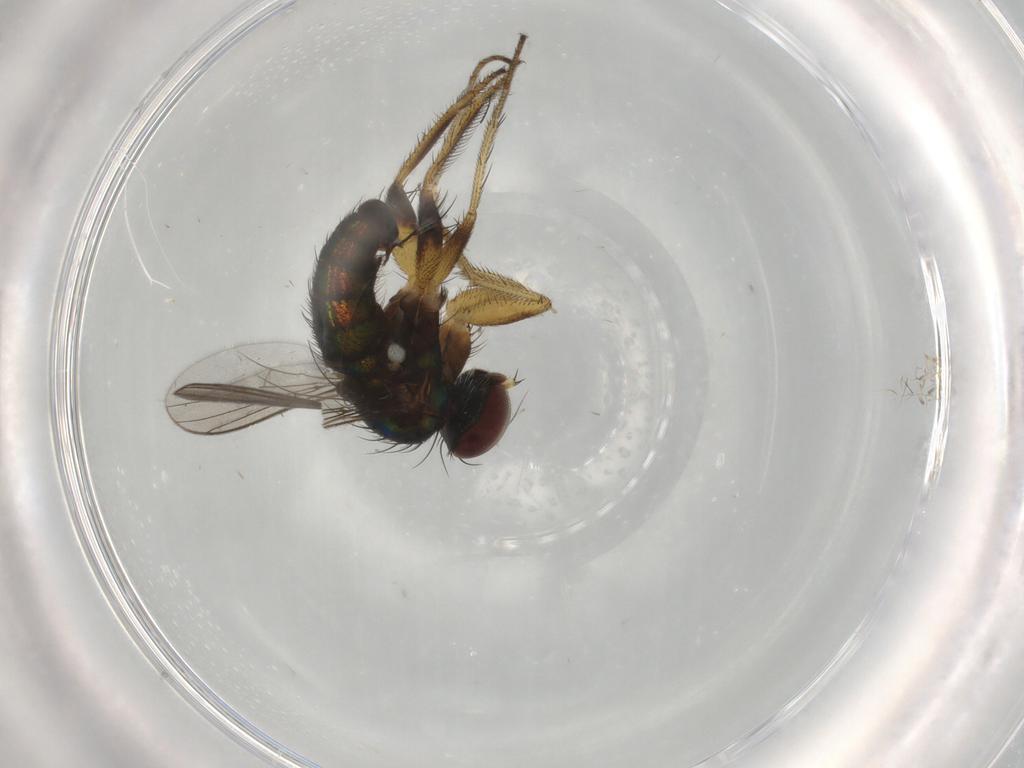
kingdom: Animalia
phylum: Arthropoda
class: Insecta
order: Diptera
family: Dolichopodidae
